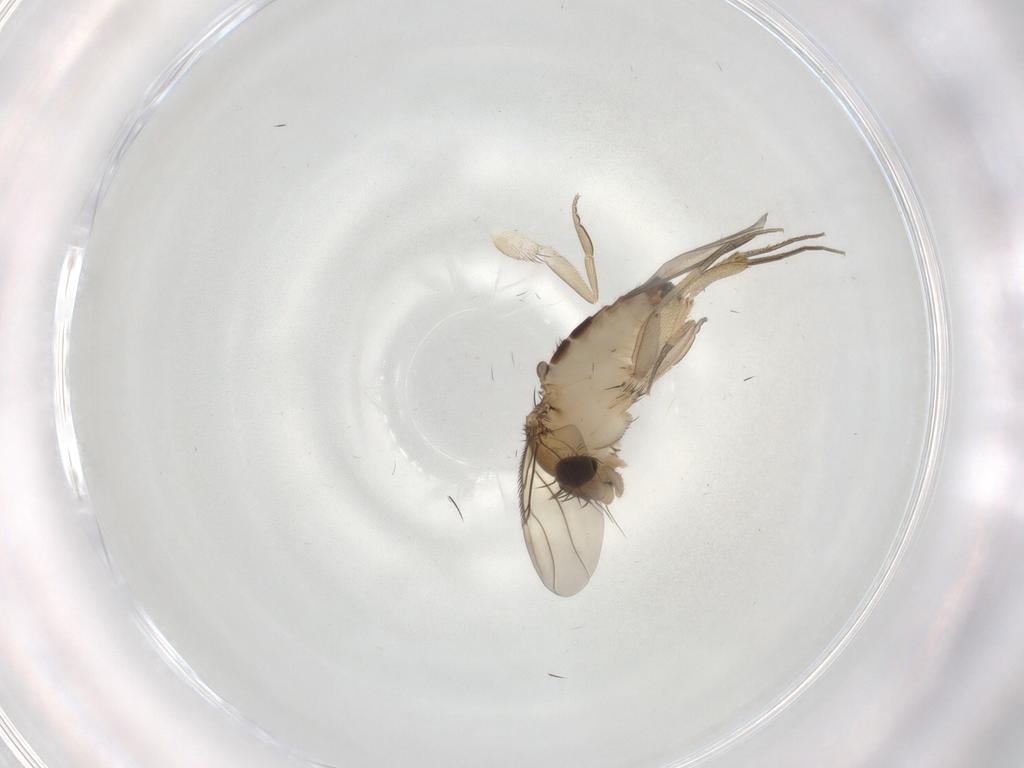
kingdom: Animalia
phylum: Arthropoda
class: Insecta
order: Diptera
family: Phoridae
